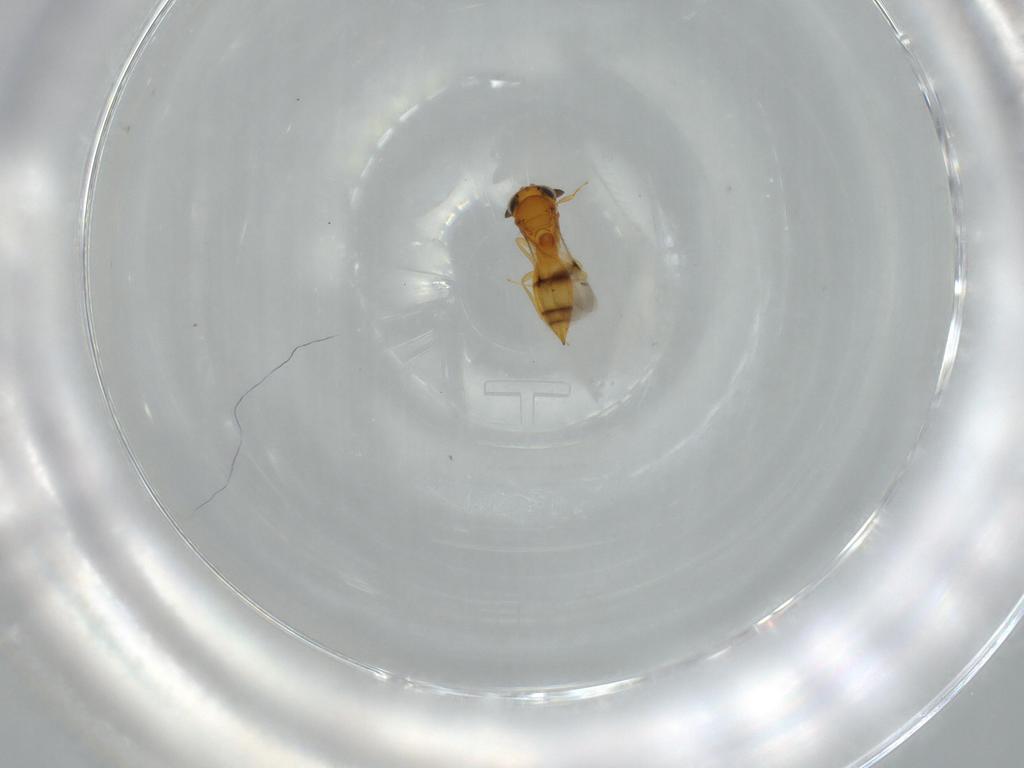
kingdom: Animalia
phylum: Arthropoda
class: Insecta
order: Hymenoptera
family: Scelionidae
